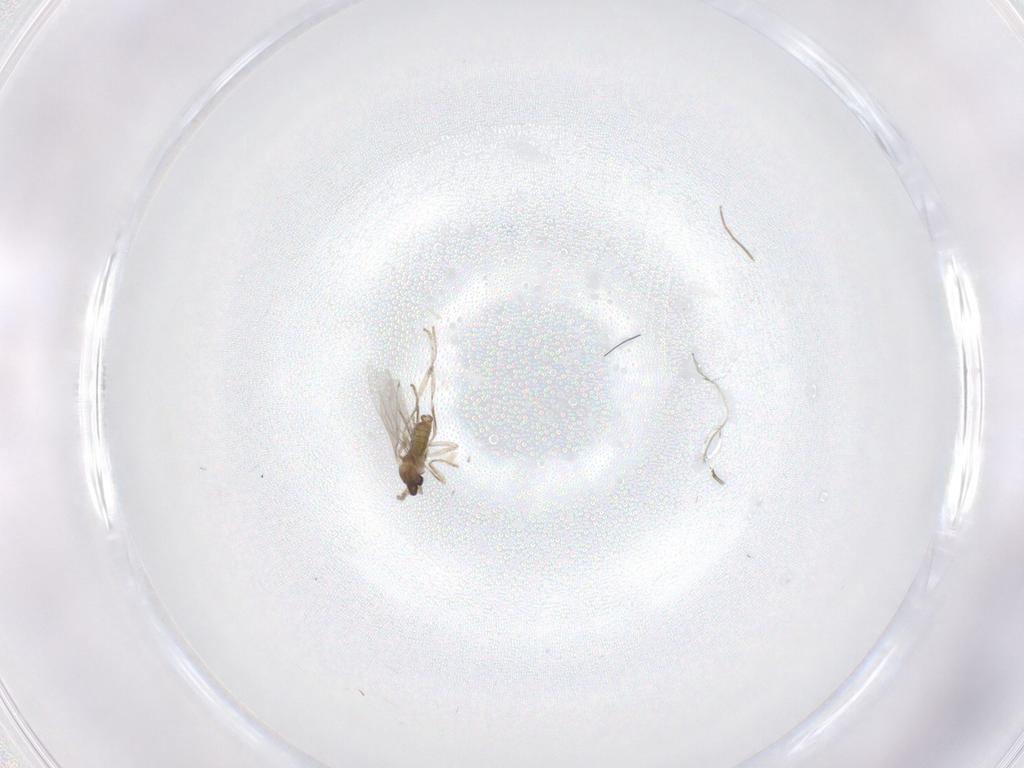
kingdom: Animalia
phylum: Arthropoda
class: Insecta
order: Diptera
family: Cecidomyiidae
